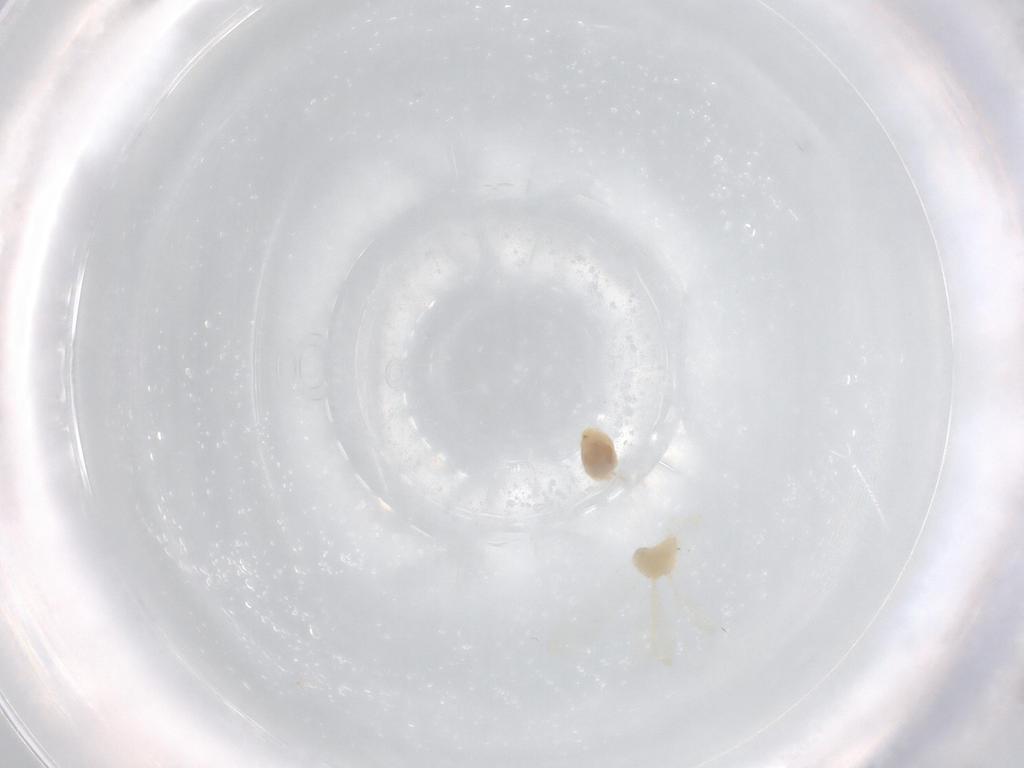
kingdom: Animalia
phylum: Arthropoda
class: Insecta
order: Hemiptera
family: Aleyrodidae
